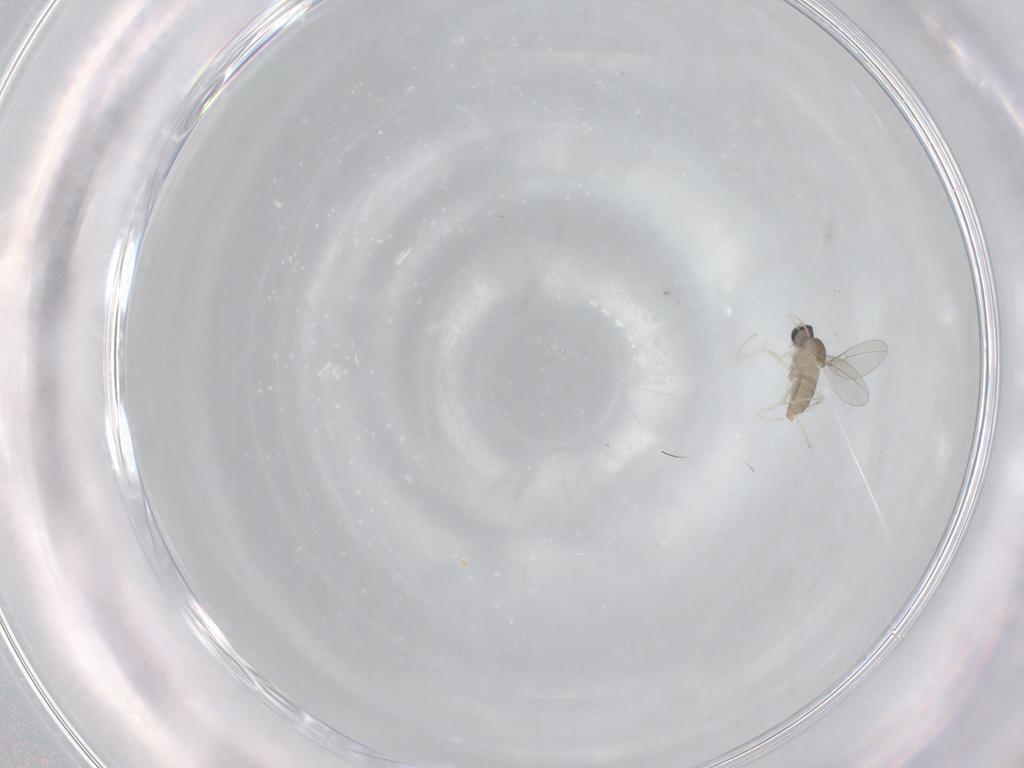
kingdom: Animalia
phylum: Arthropoda
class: Insecta
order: Diptera
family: Cecidomyiidae
